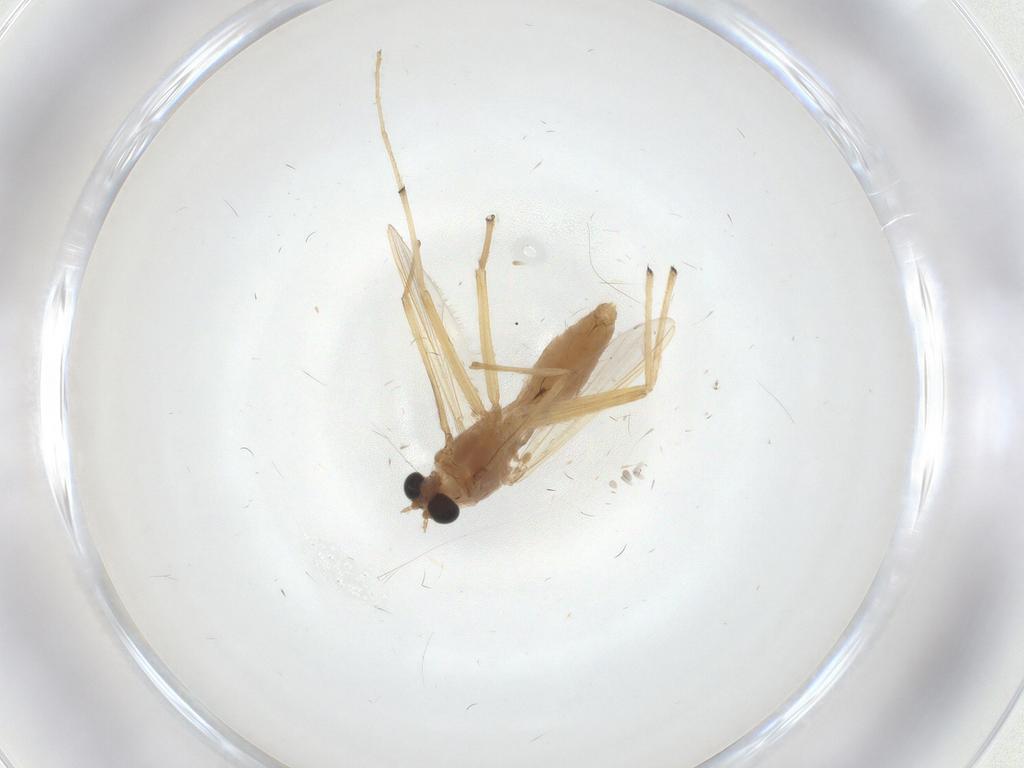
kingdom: Animalia
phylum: Arthropoda
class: Insecta
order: Diptera
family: Chironomidae
